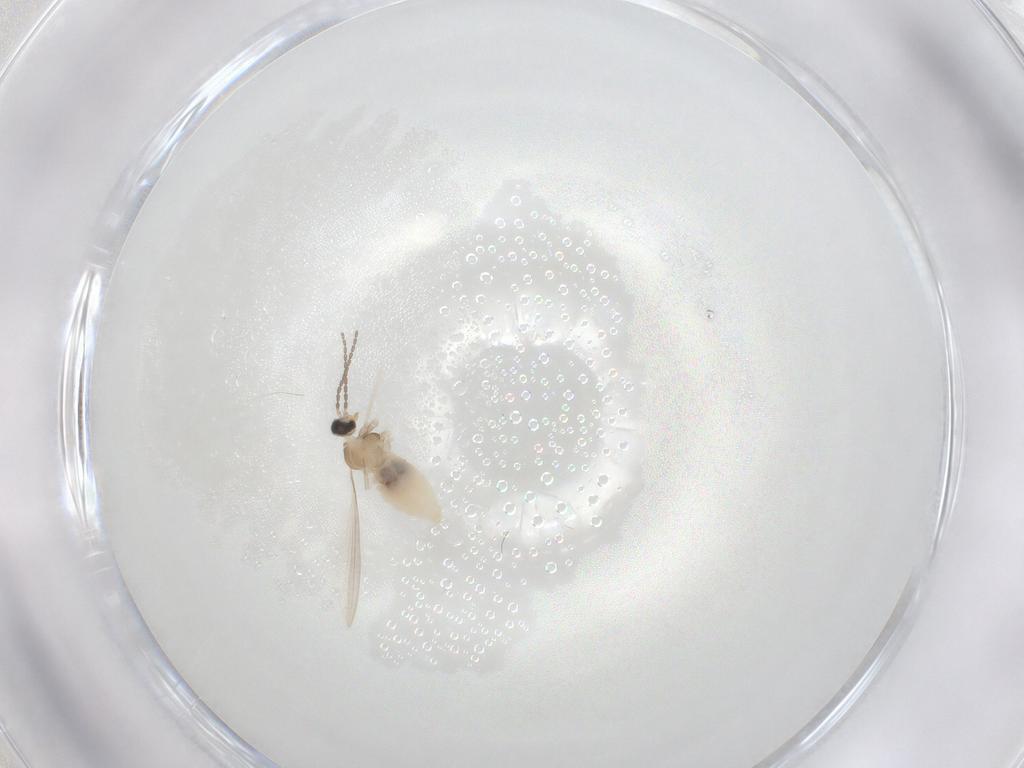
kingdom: Animalia
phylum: Arthropoda
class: Insecta
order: Diptera
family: Cecidomyiidae
